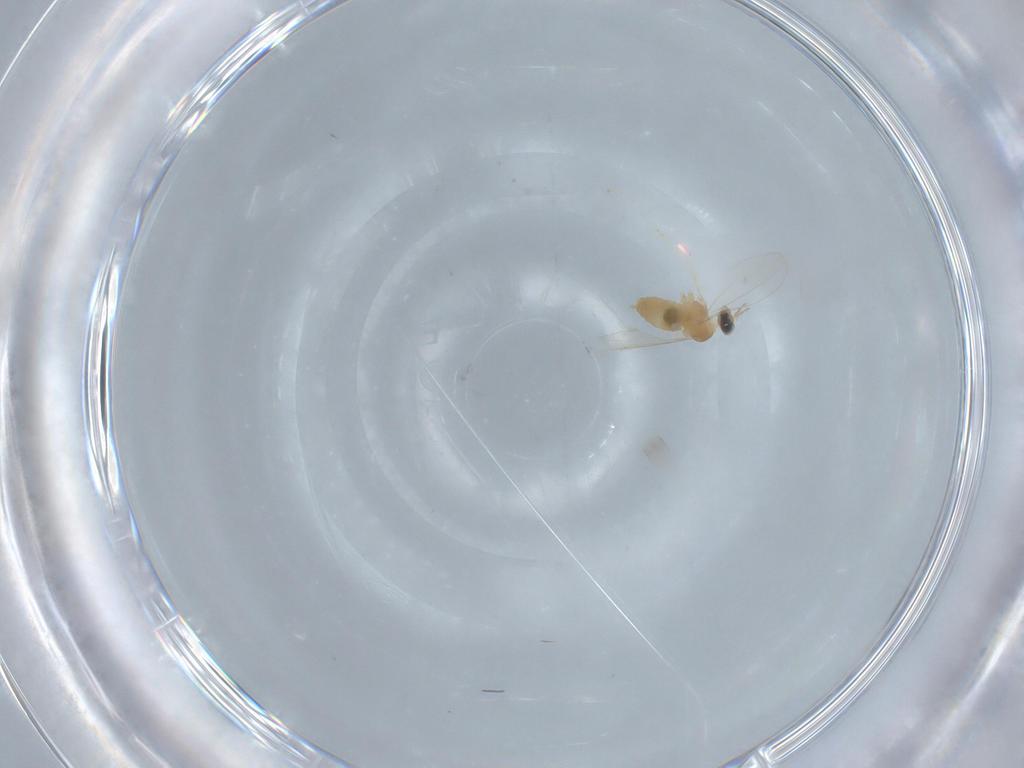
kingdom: Animalia
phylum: Arthropoda
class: Insecta
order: Diptera
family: Cecidomyiidae
